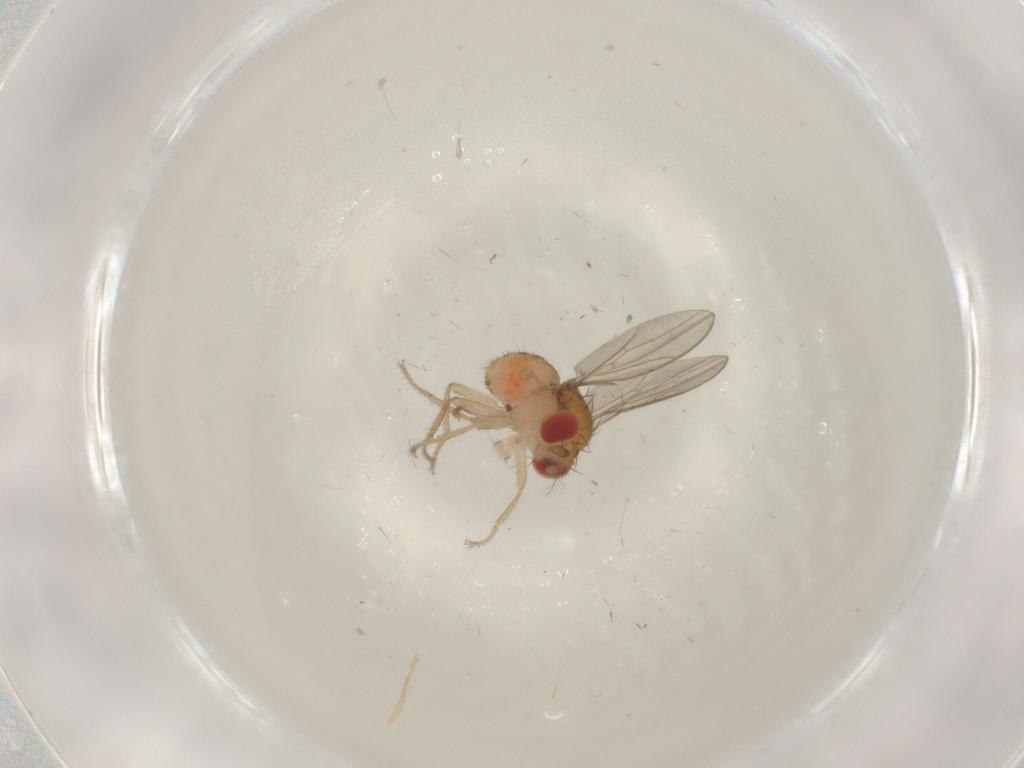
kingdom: Animalia
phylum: Arthropoda
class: Insecta
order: Diptera
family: Drosophilidae
